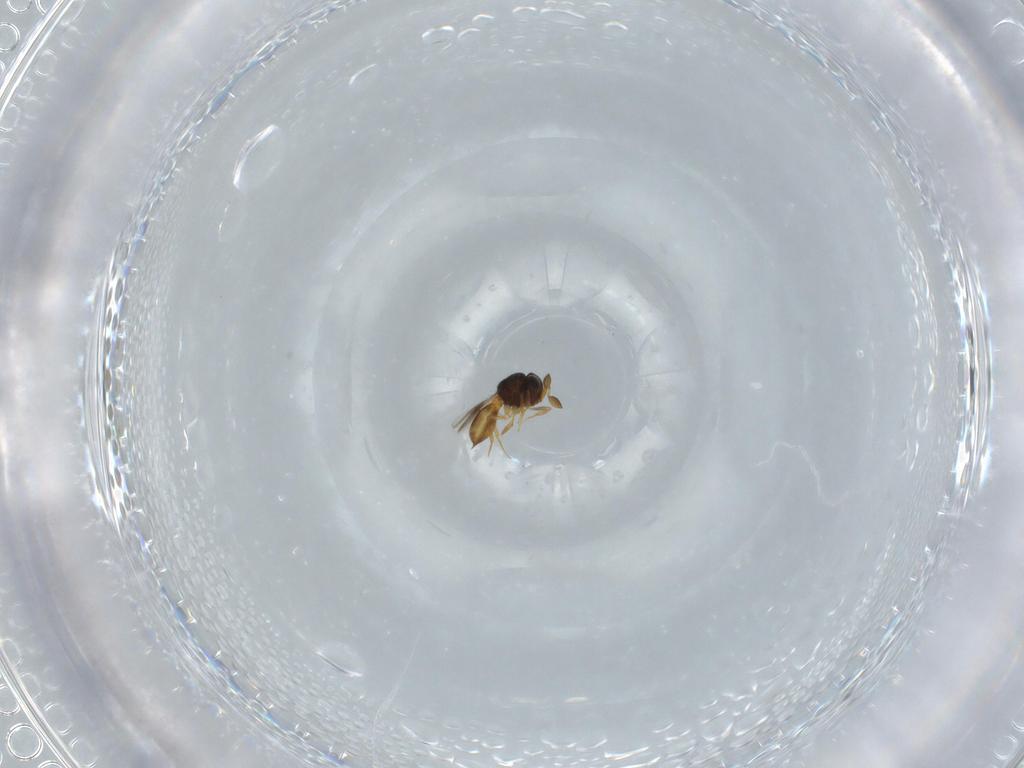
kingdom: Animalia
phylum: Arthropoda
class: Insecta
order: Hymenoptera
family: Scelionidae
